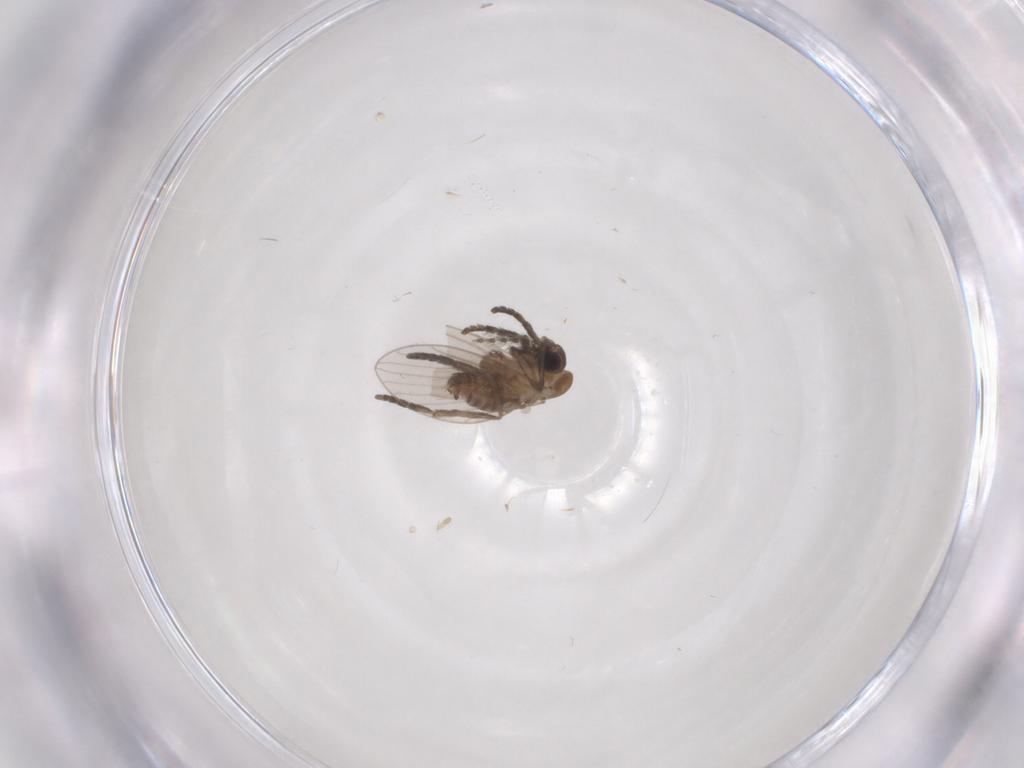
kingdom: Animalia
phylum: Arthropoda
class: Insecta
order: Diptera
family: Psychodidae
